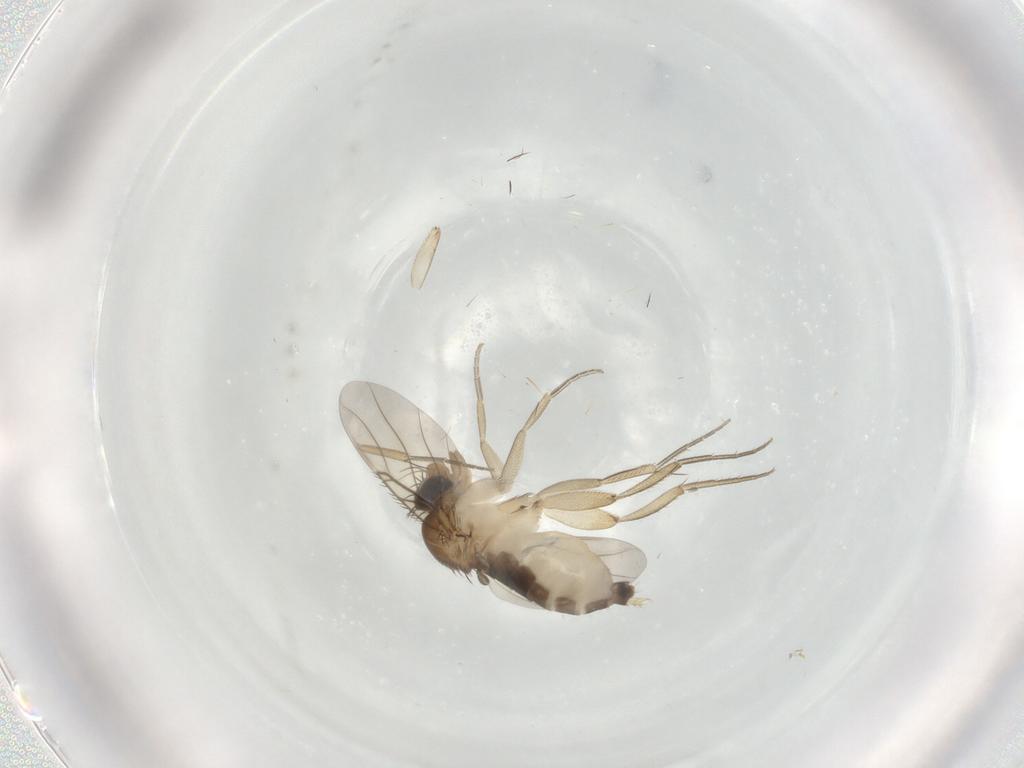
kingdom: Animalia
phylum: Arthropoda
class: Insecta
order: Diptera
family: Phoridae
